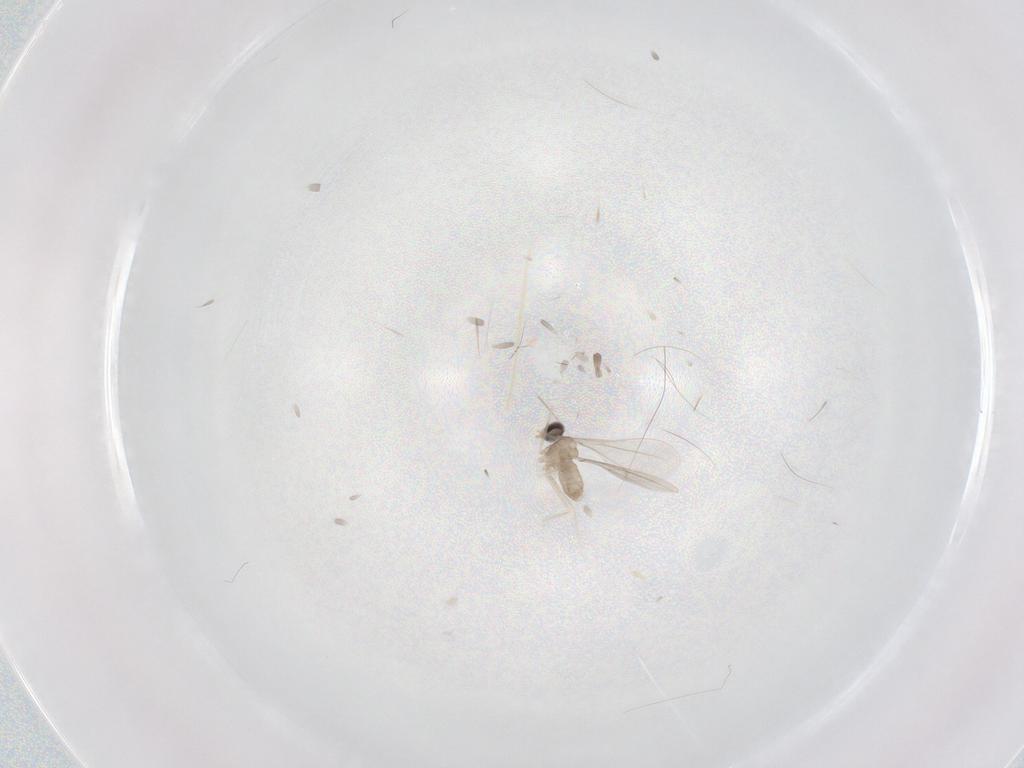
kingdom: Animalia
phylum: Arthropoda
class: Insecta
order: Diptera
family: Cecidomyiidae
